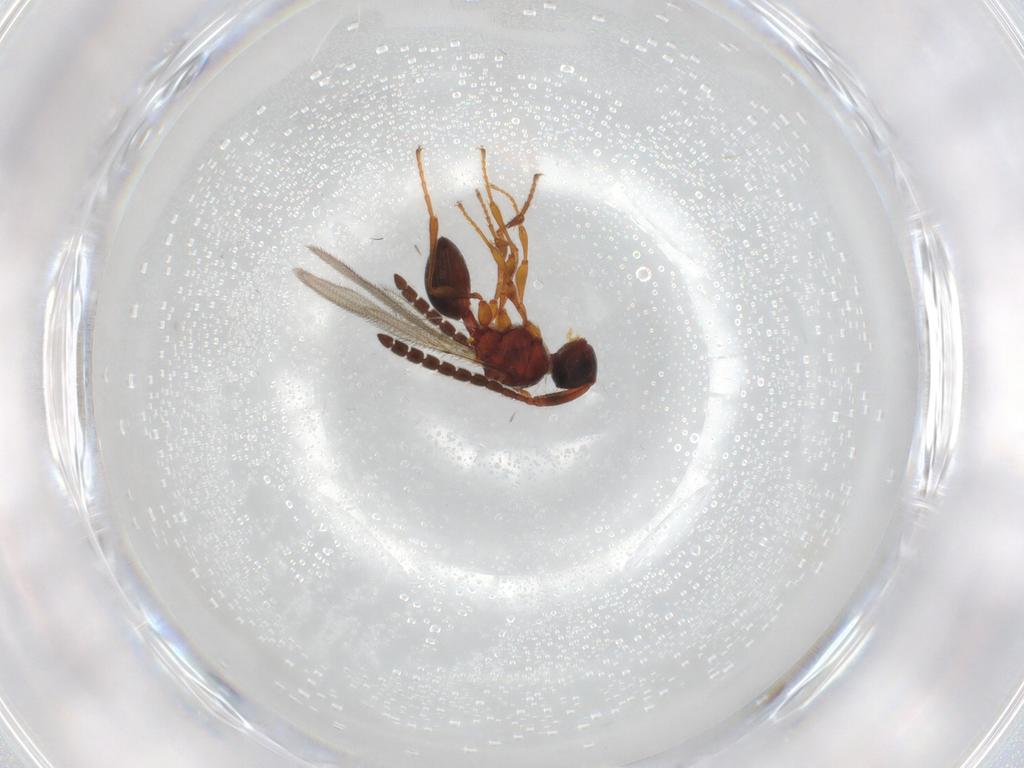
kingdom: Animalia
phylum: Arthropoda
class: Insecta
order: Hymenoptera
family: Diapriidae
